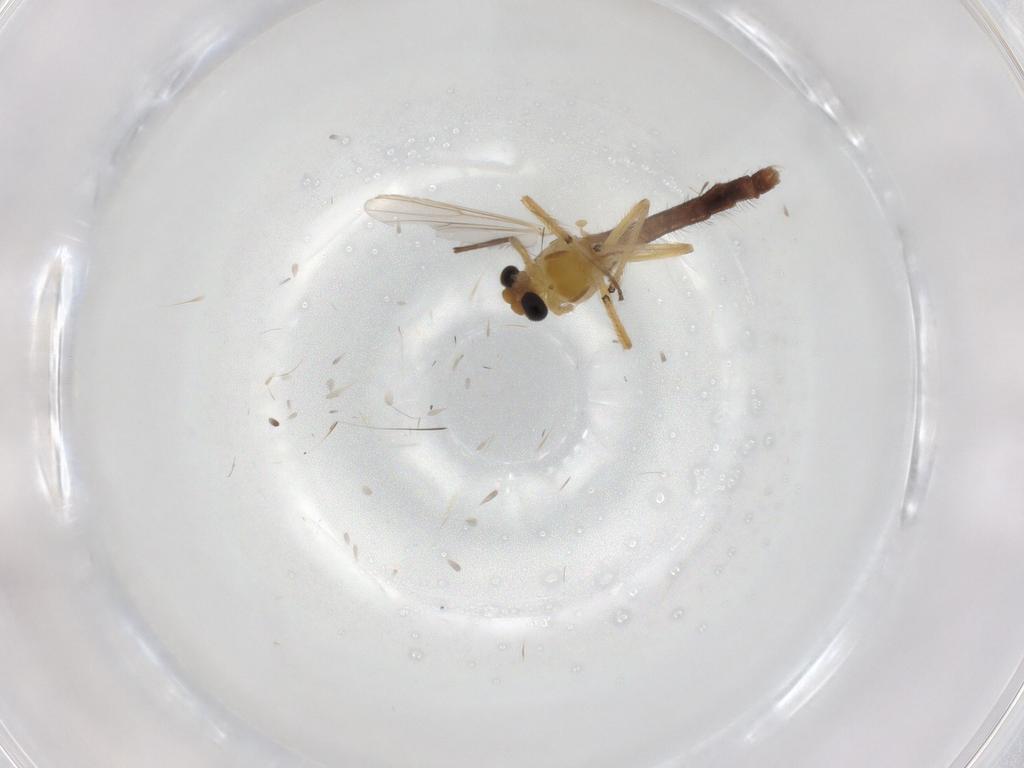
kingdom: Animalia
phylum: Arthropoda
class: Insecta
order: Diptera
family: Chironomidae
